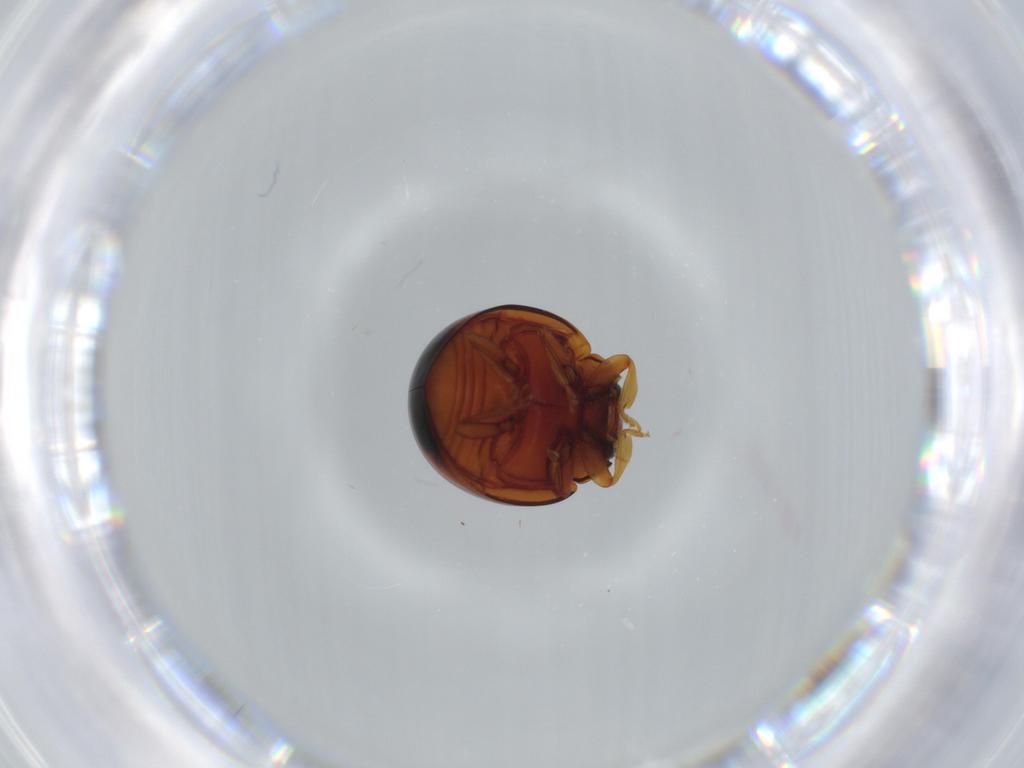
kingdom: Animalia
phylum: Arthropoda
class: Insecta
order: Coleoptera
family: Coccinellidae
